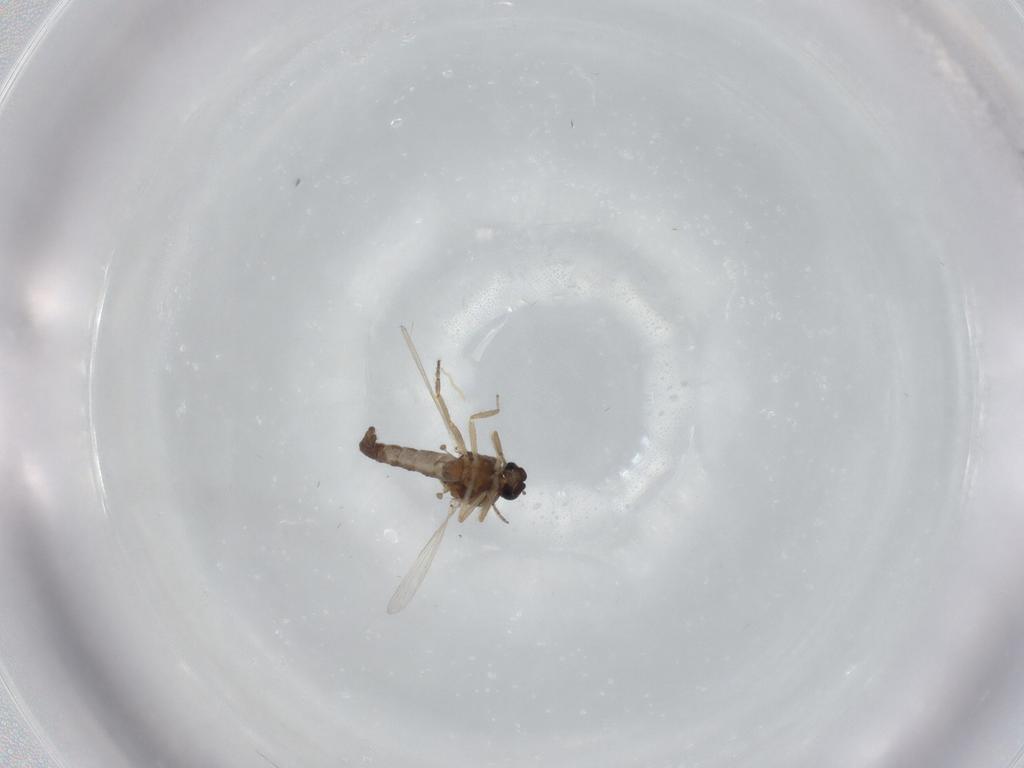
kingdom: Animalia
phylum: Arthropoda
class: Insecta
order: Diptera
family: Ceratopogonidae
